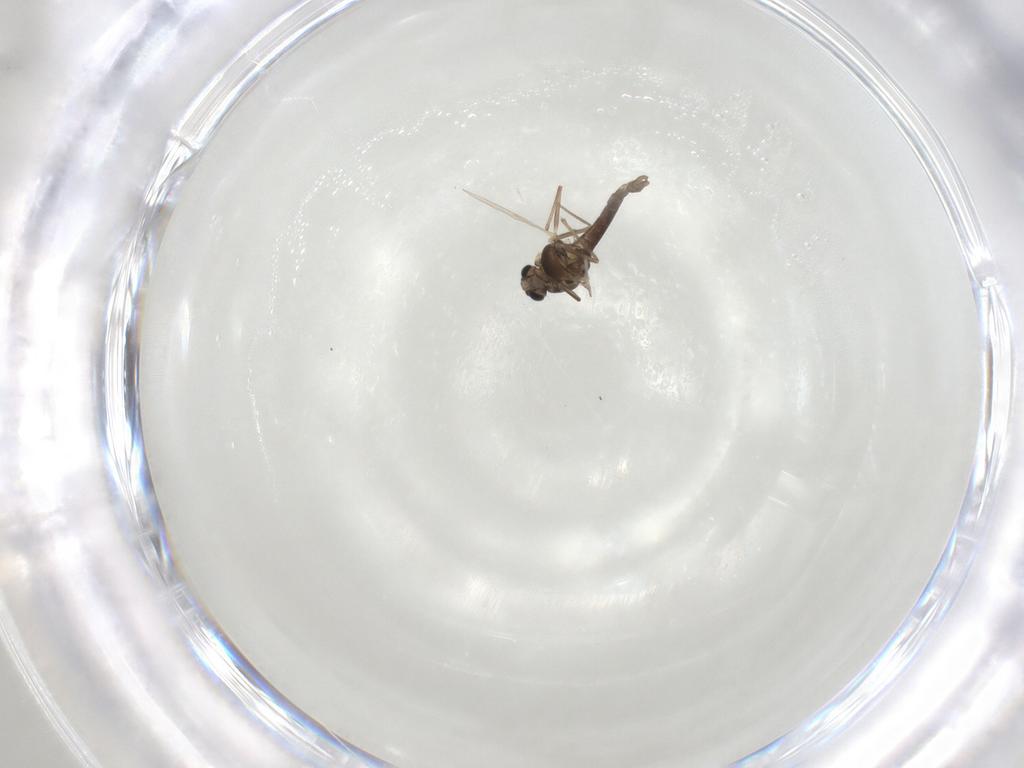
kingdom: Animalia
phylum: Arthropoda
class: Insecta
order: Diptera
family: Chironomidae
